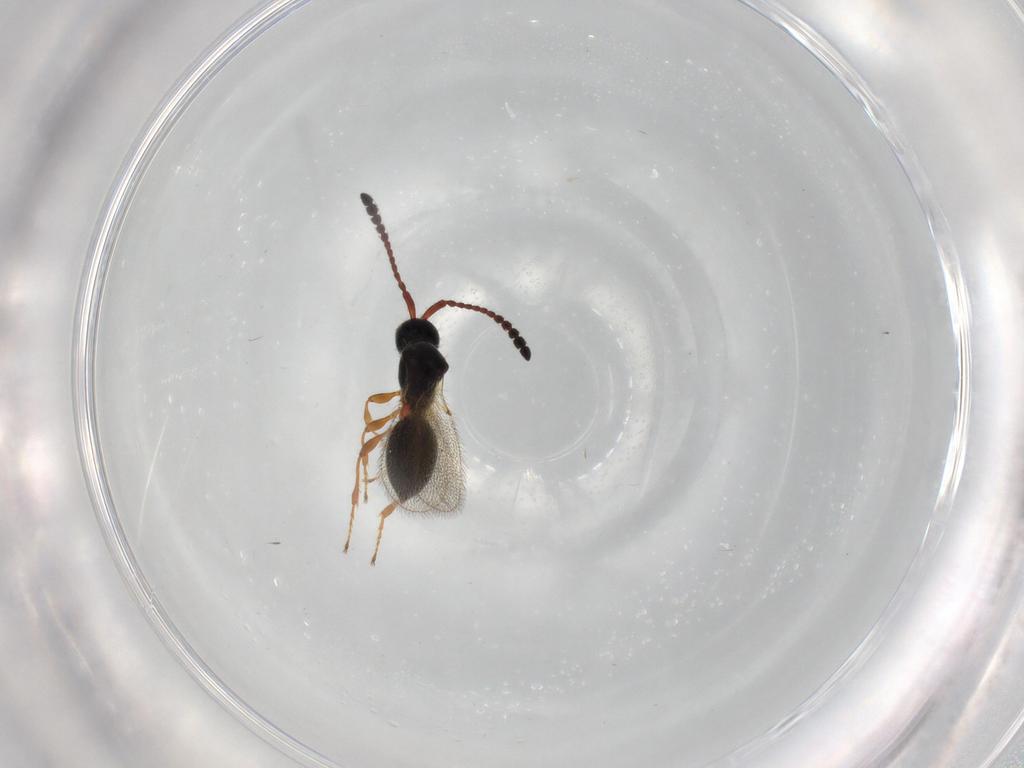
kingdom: Animalia
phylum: Arthropoda
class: Insecta
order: Hymenoptera
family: Diapriidae
